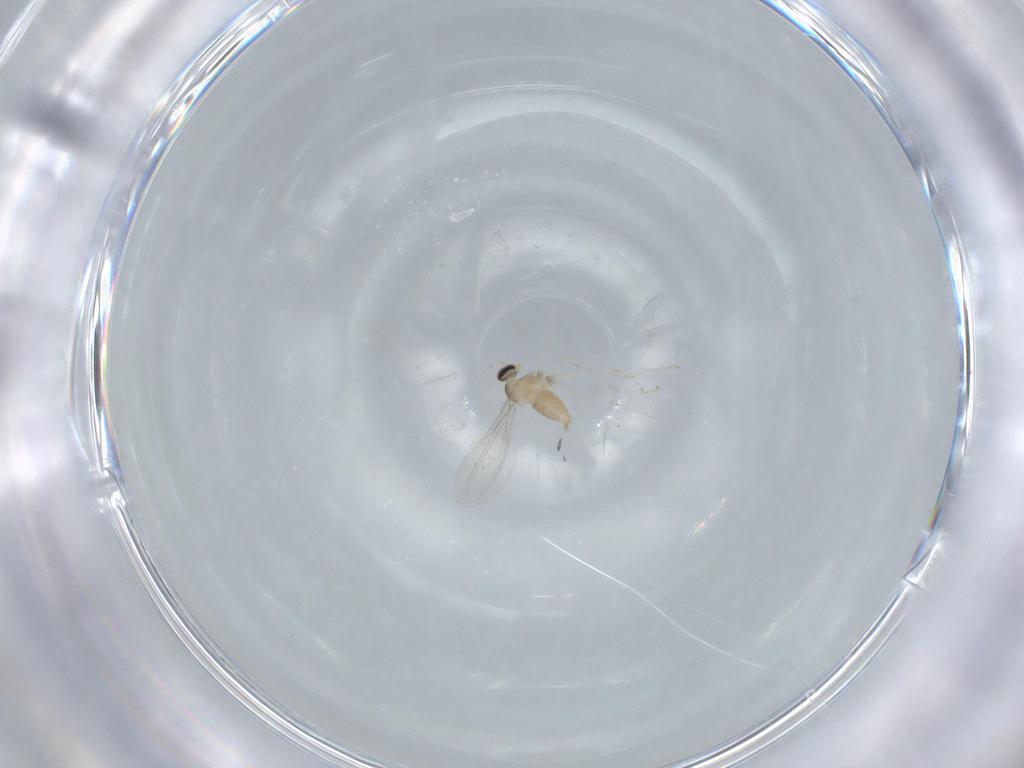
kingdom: Animalia
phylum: Arthropoda
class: Insecta
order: Diptera
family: Cecidomyiidae
